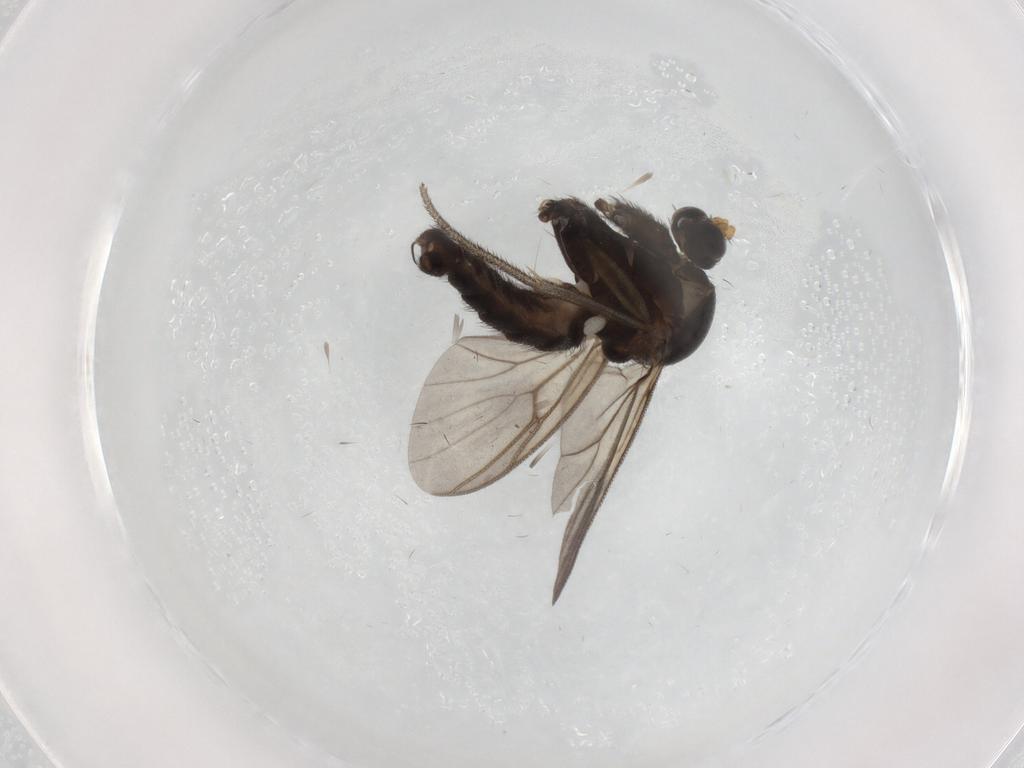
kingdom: Animalia
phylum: Arthropoda
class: Insecta
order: Diptera
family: Mycetophilidae
